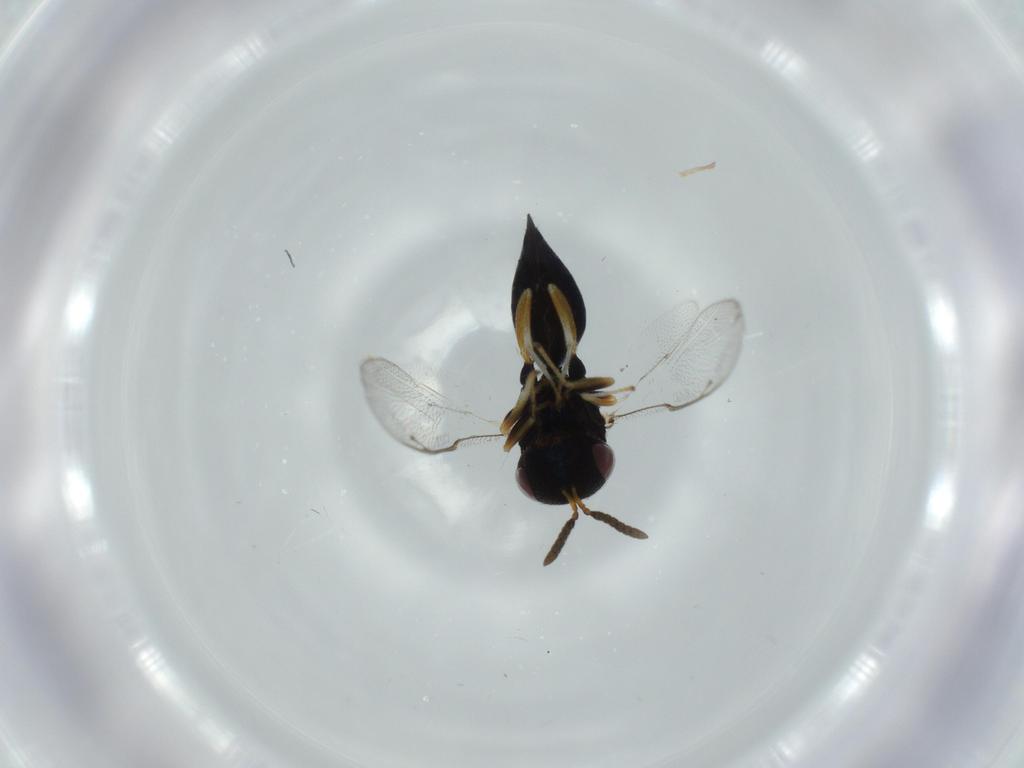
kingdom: Animalia
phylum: Arthropoda
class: Insecta
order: Hymenoptera
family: Pteromalidae
